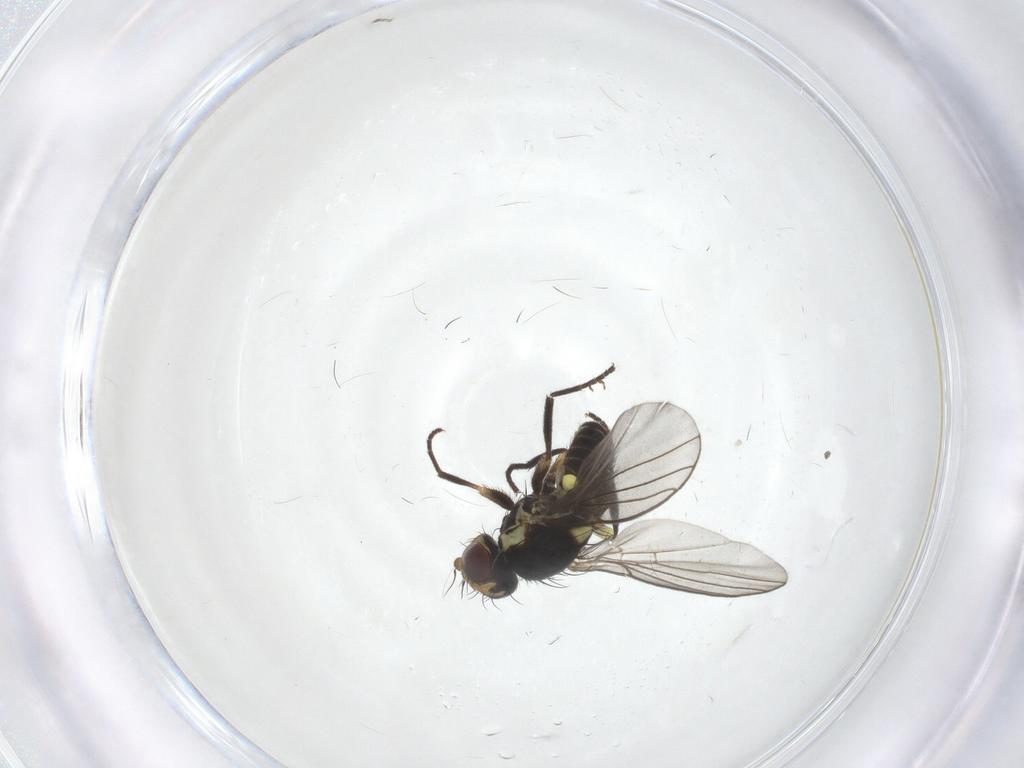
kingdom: Animalia
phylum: Arthropoda
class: Insecta
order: Diptera
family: Agromyzidae
